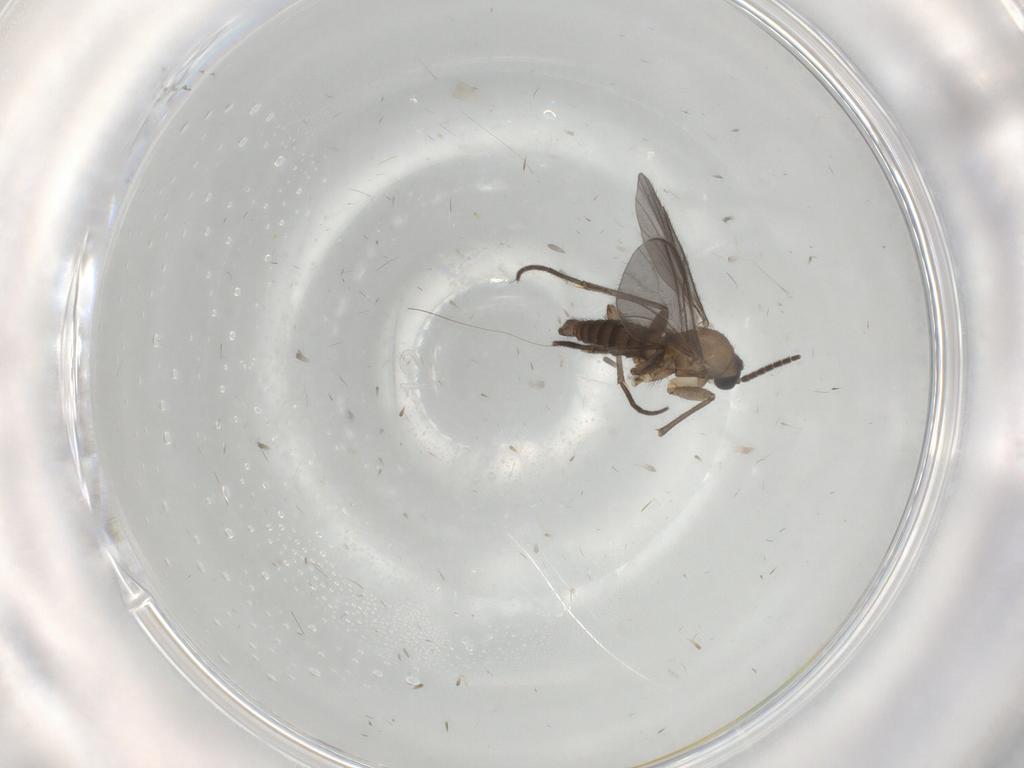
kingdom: Animalia
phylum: Arthropoda
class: Insecta
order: Diptera
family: Sciaridae
